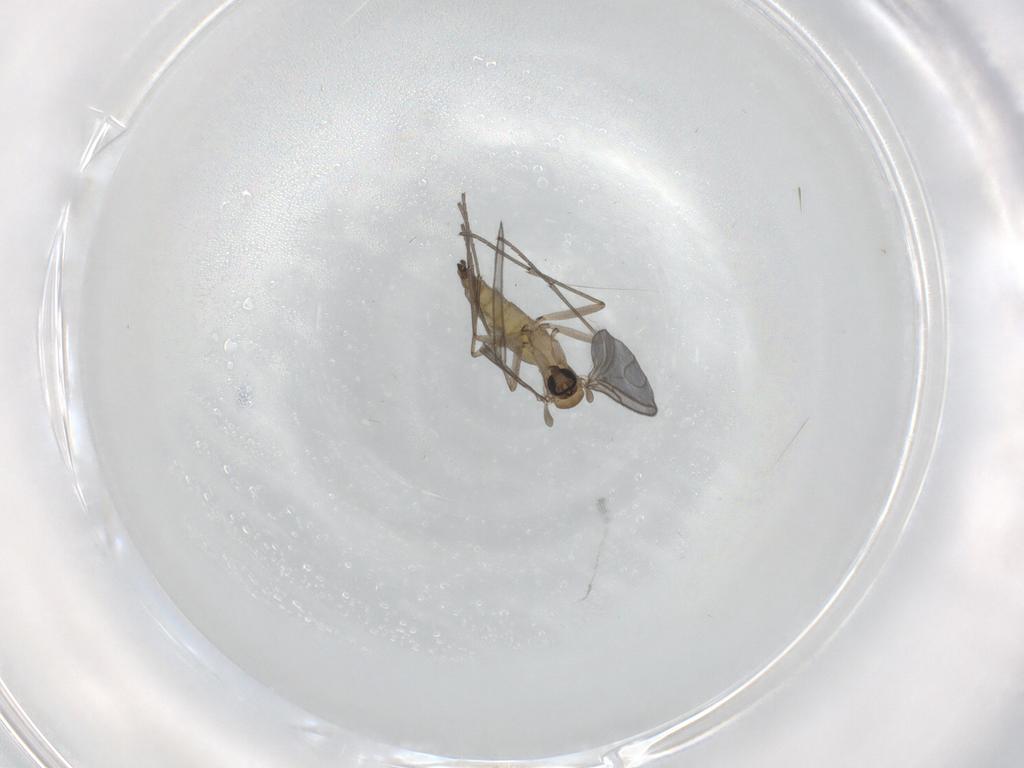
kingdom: Animalia
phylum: Arthropoda
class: Insecta
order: Diptera
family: Sciaridae
